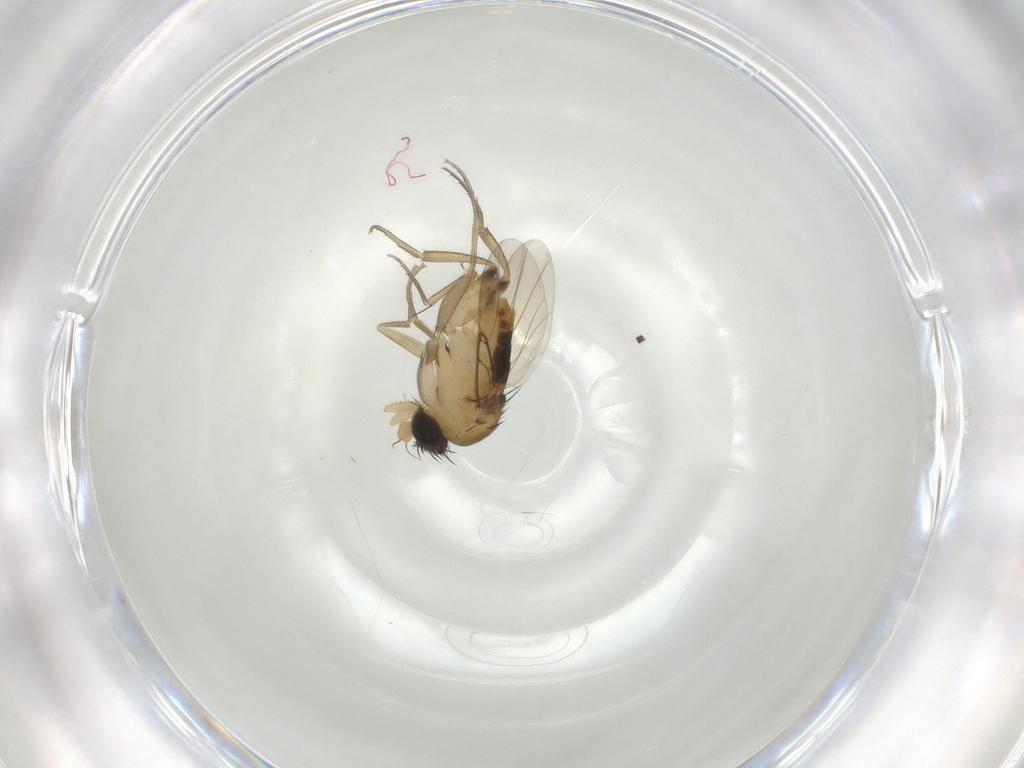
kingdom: Animalia
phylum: Arthropoda
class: Insecta
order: Diptera
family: Phoridae
